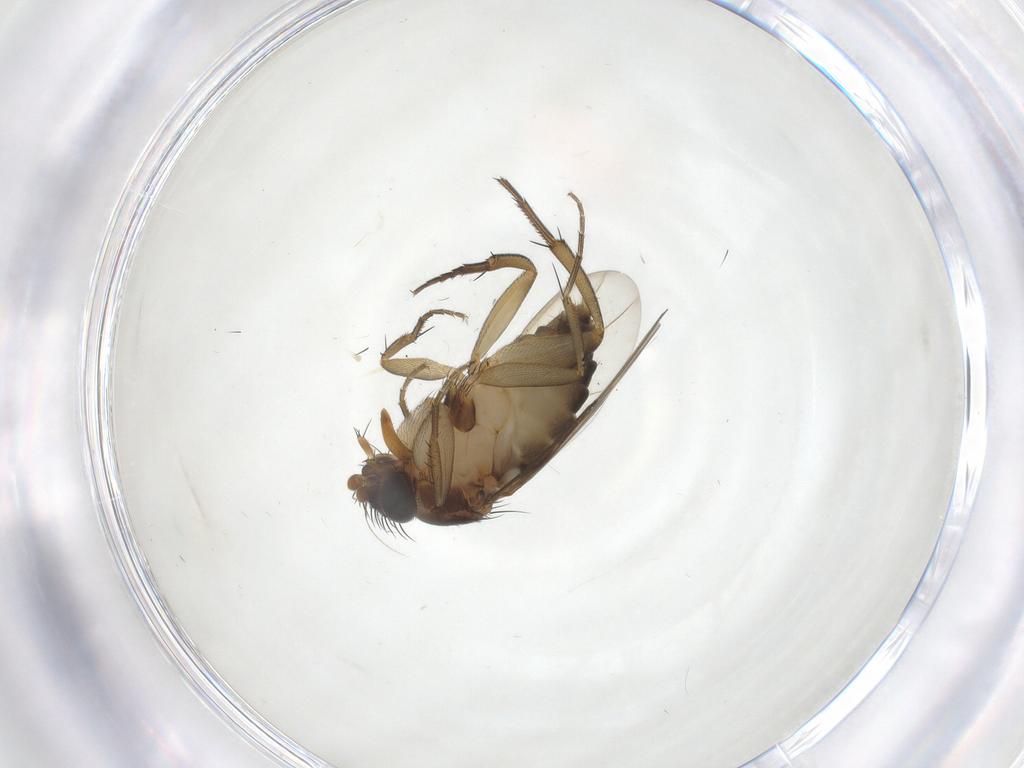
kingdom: Animalia
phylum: Arthropoda
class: Insecta
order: Diptera
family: Phoridae
